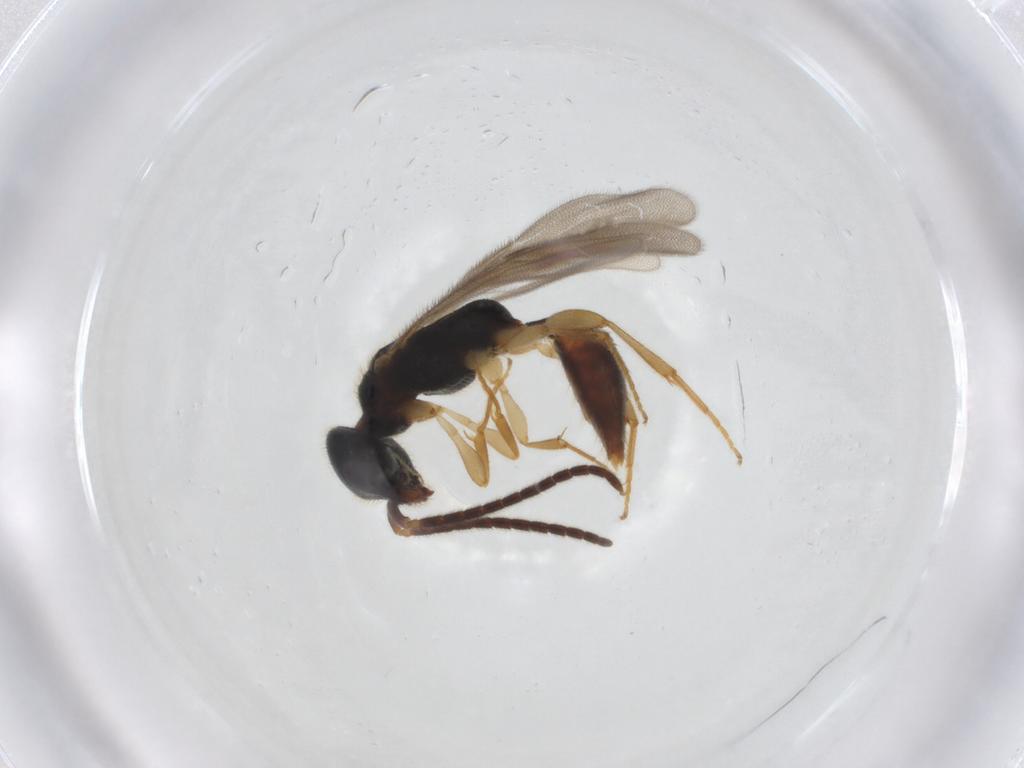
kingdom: Animalia
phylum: Arthropoda
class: Insecta
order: Hymenoptera
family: Bethylidae
